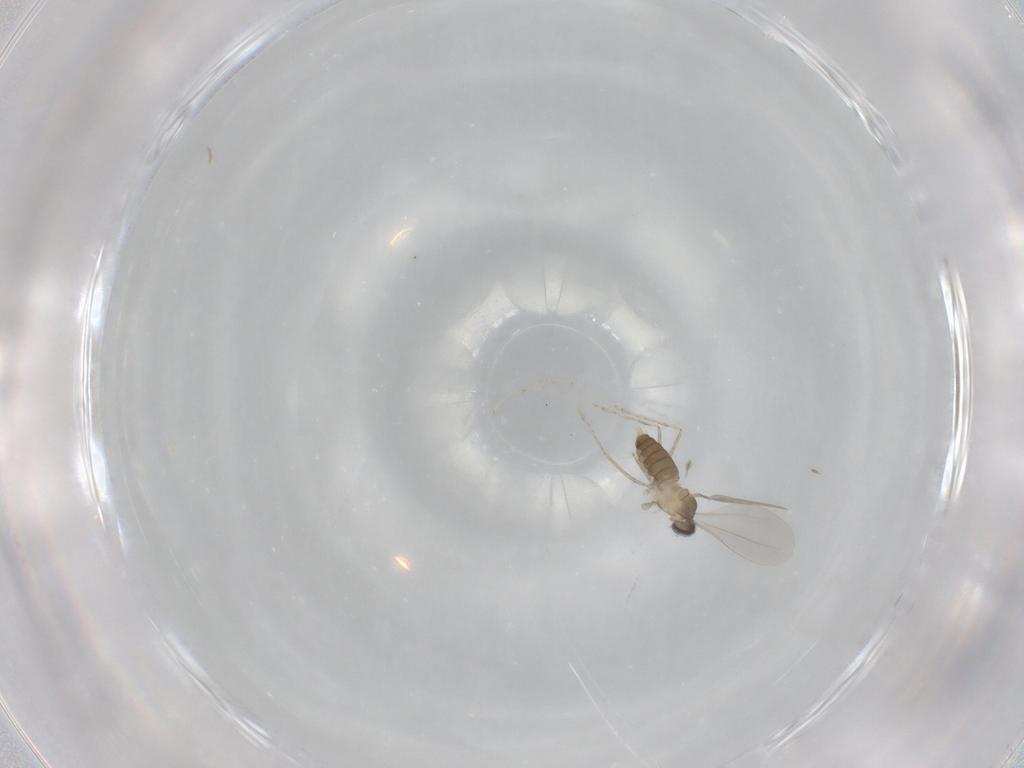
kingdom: Animalia
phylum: Arthropoda
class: Insecta
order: Diptera
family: Cecidomyiidae
